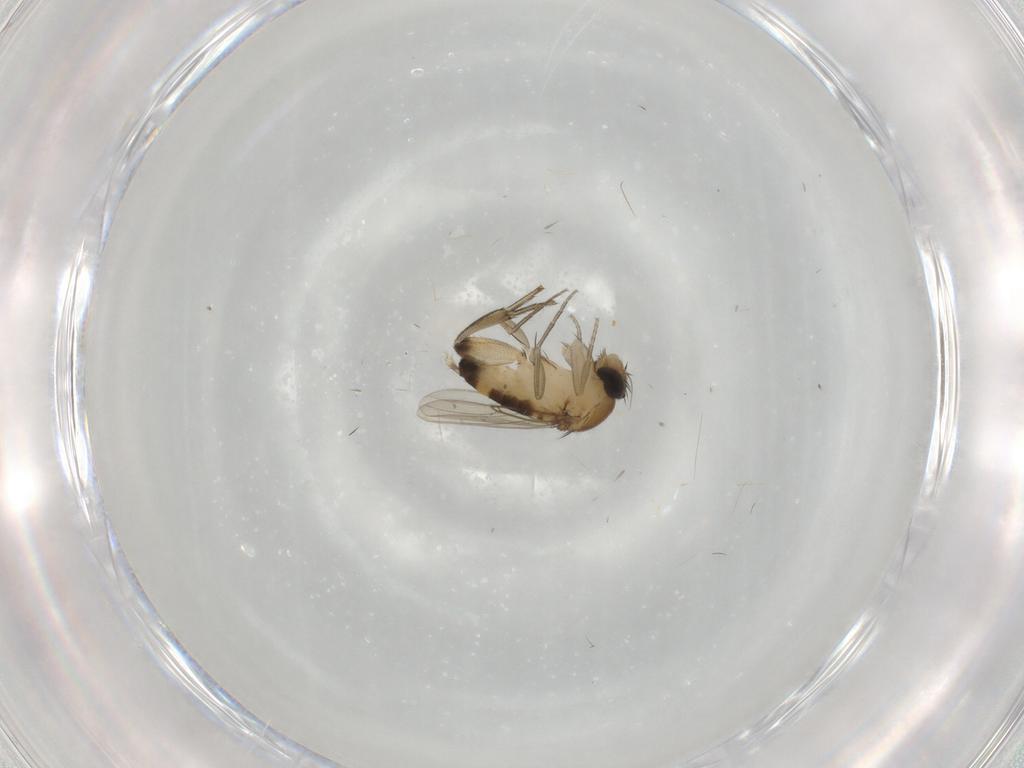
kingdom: Animalia
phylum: Arthropoda
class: Insecta
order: Diptera
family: Phoridae
